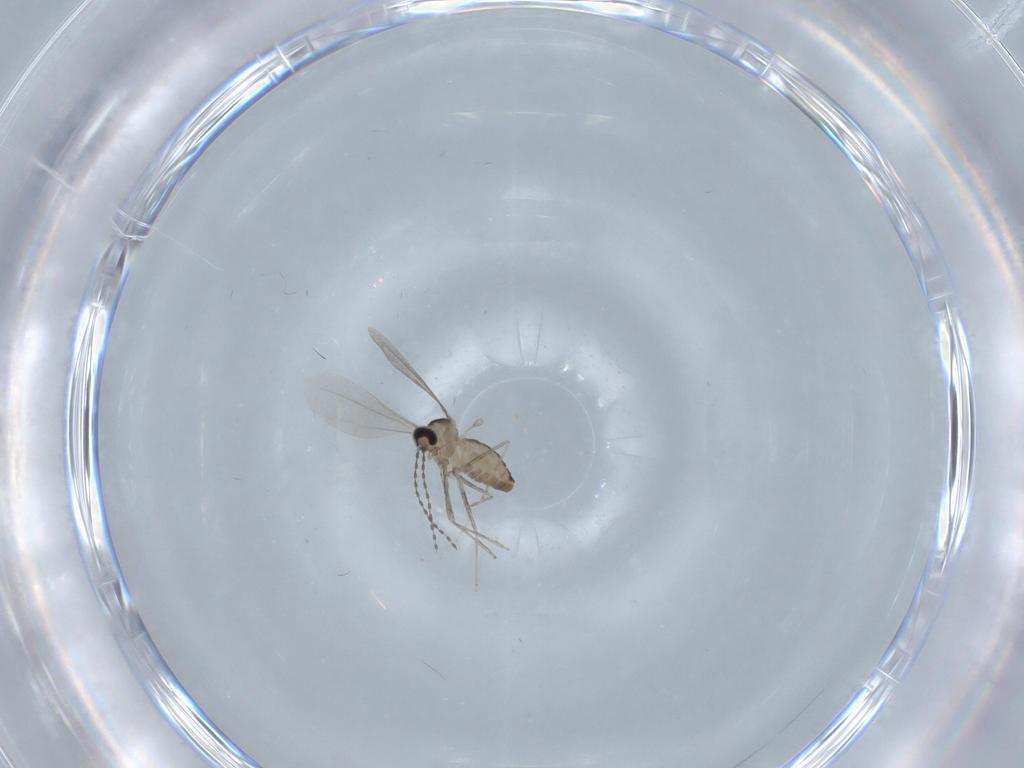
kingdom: Animalia
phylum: Arthropoda
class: Insecta
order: Diptera
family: Cecidomyiidae
